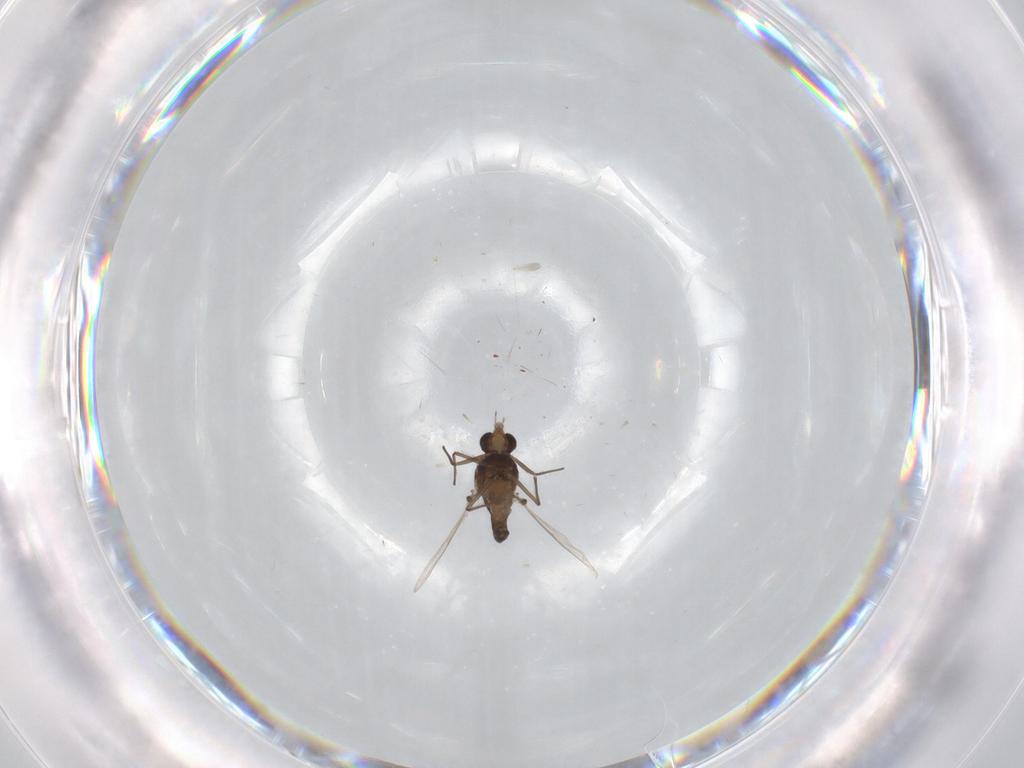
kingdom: Animalia
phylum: Arthropoda
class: Insecta
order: Diptera
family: Chironomidae
